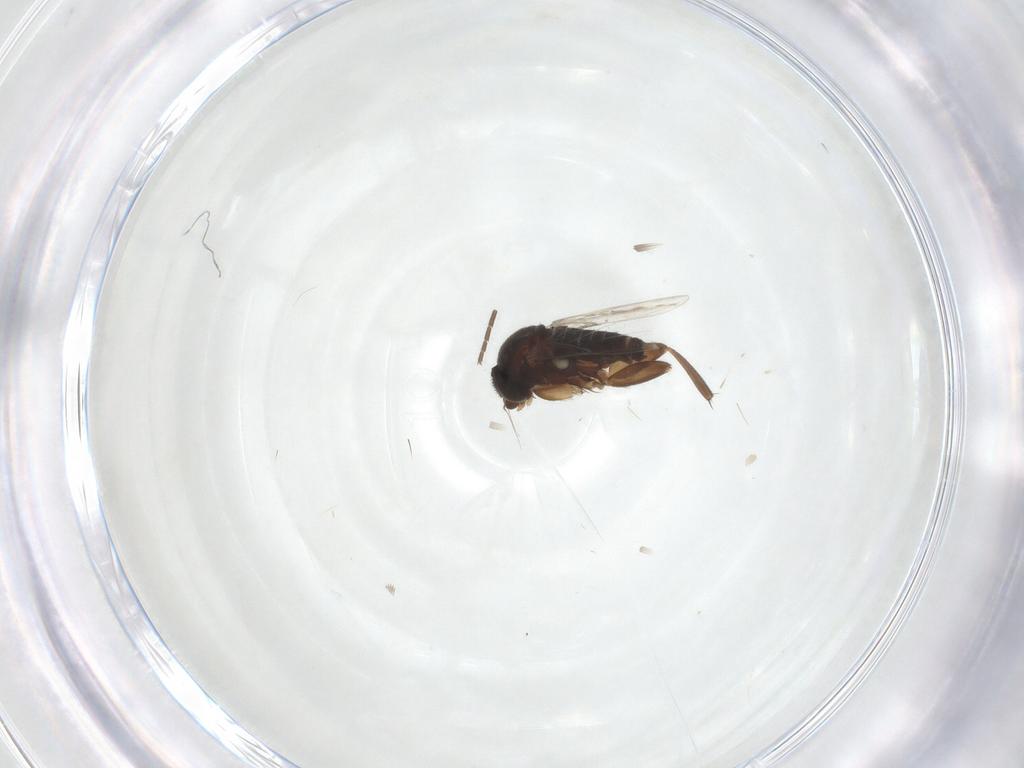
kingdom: Animalia
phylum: Arthropoda
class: Insecta
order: Diptera
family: Phoridae
